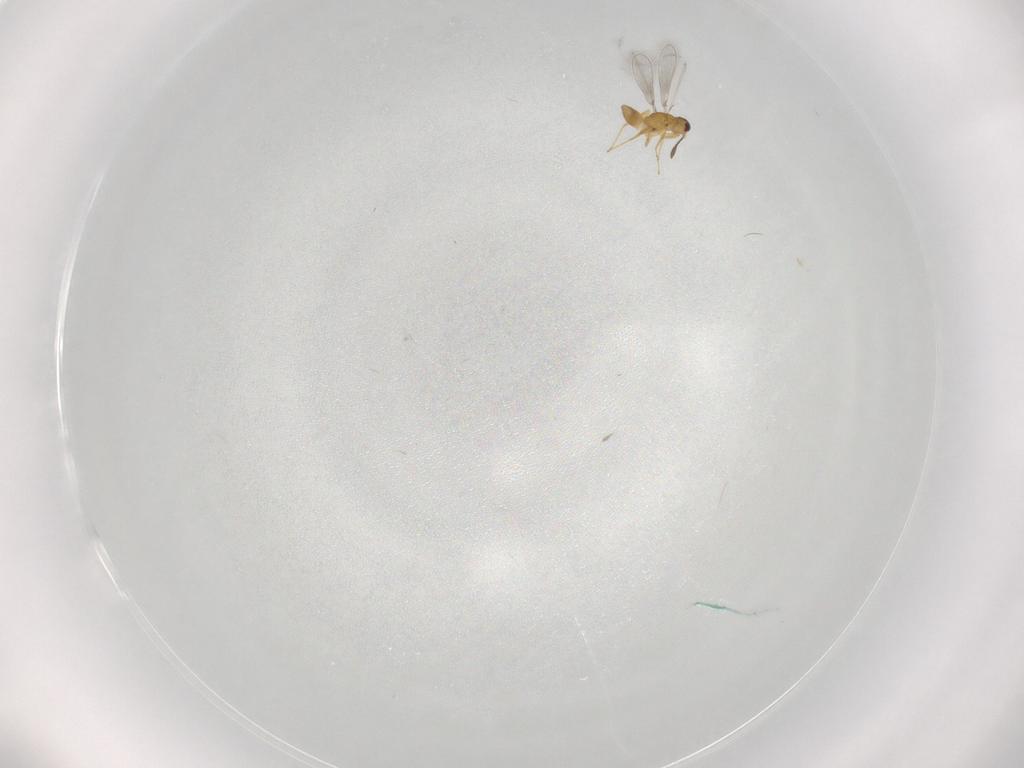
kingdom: Animalia
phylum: Arthropoda
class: Insecta
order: Hymenoptera
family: Mymaridae
